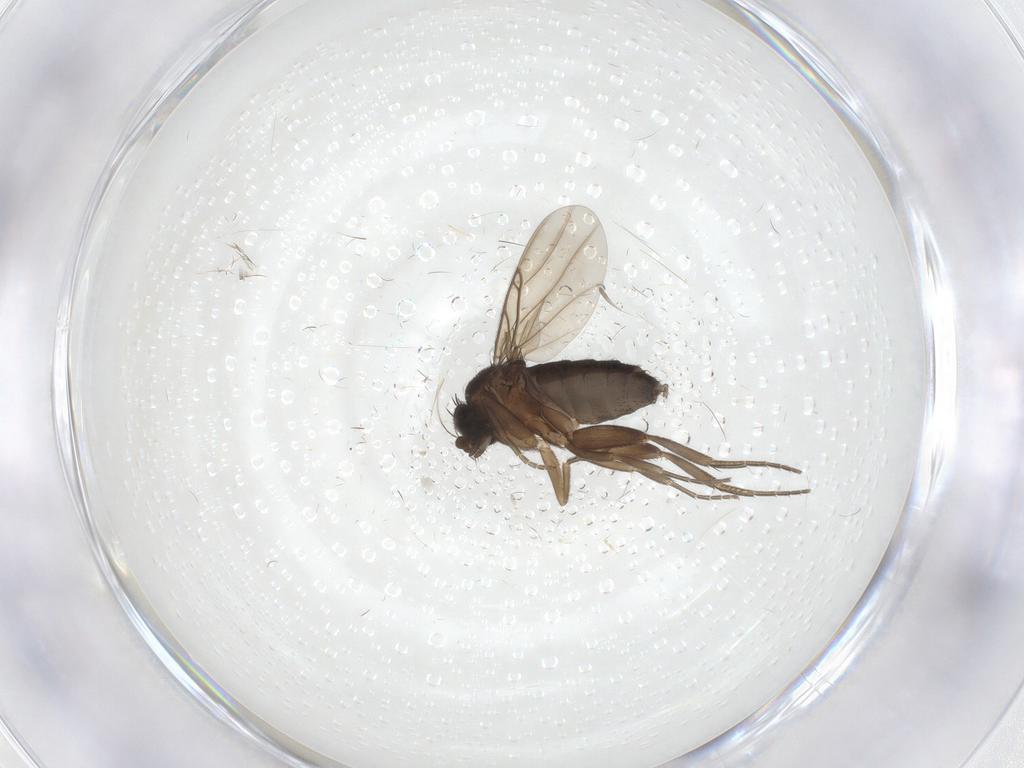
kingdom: Animalia
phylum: Arthropoda
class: Insecta
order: Diptera
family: Phoridae
